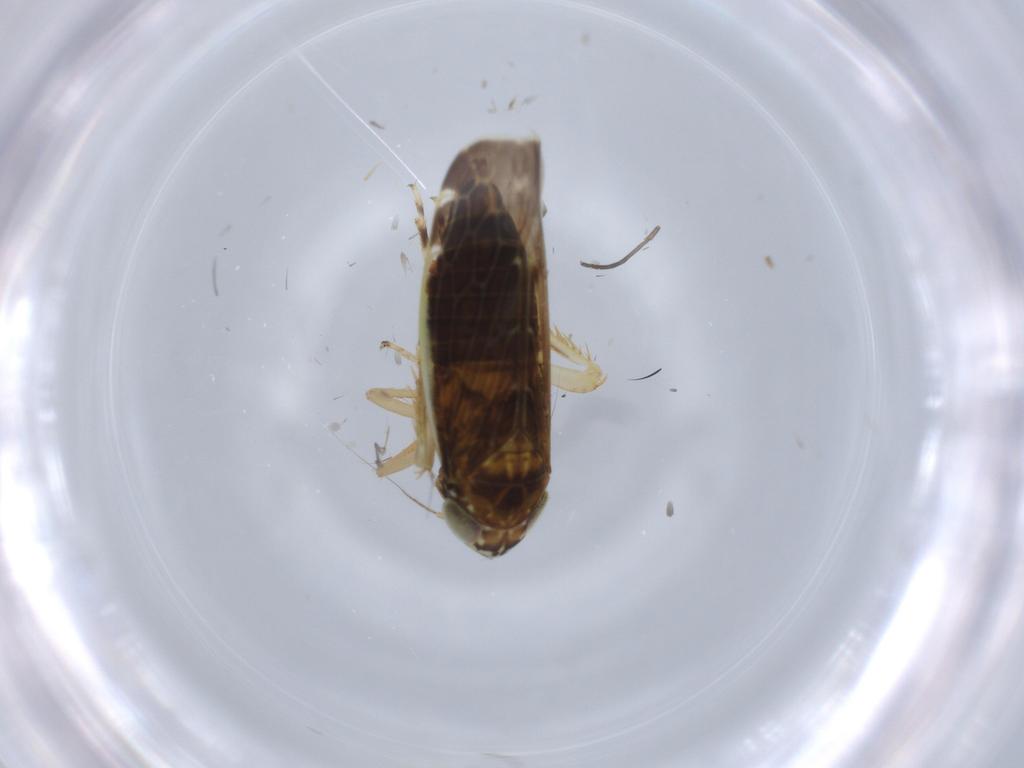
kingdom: Animalia
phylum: Arthropoda
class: Insecta
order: Hemiptera
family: Cicadellidae
